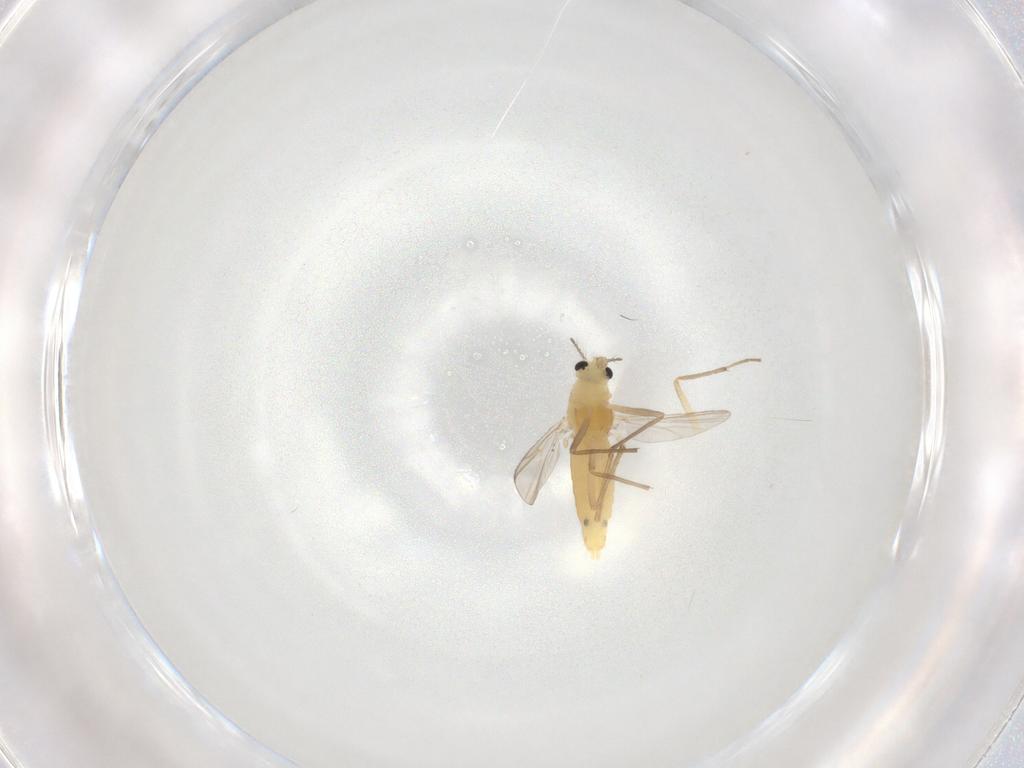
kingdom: Animalia
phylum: Arthropoda
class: Insecta
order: Diptera
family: Chironomidae
